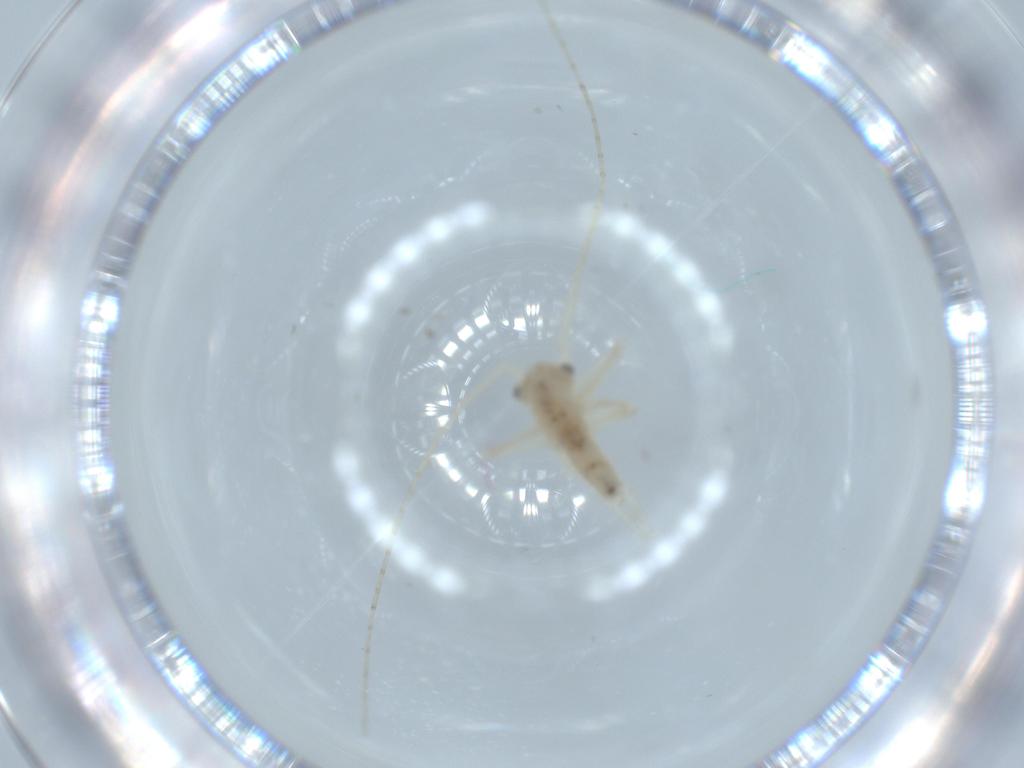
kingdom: Animalia
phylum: Arthropoda
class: Insecta
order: Orthoptera
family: Trigonidiidae
